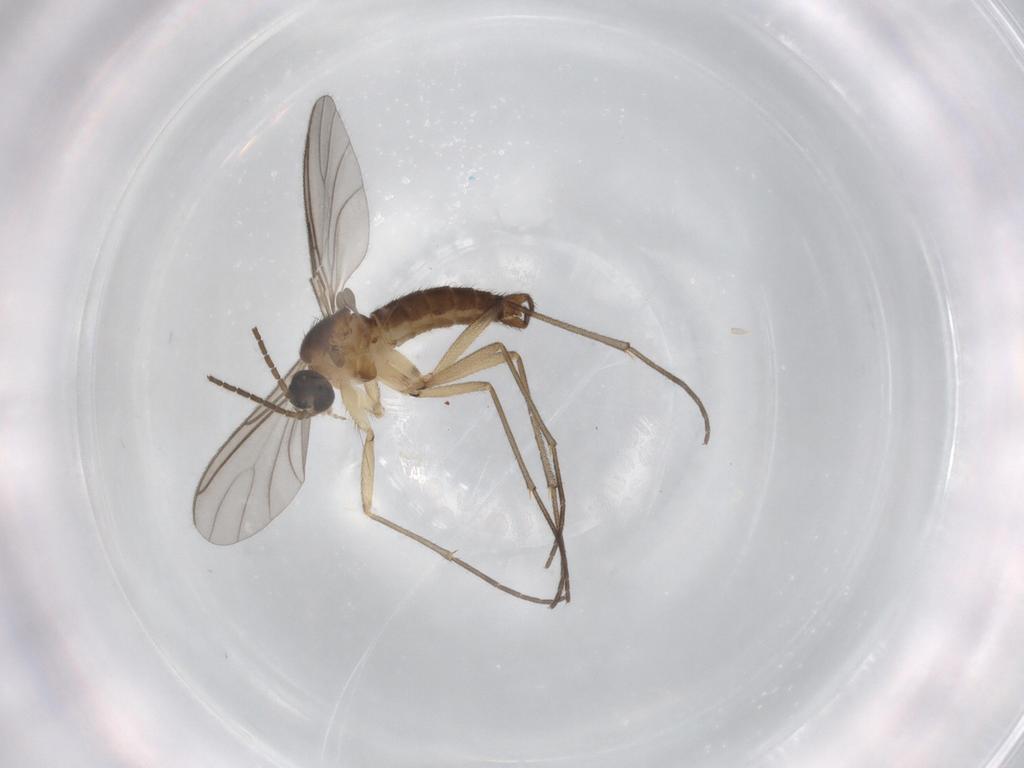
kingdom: Animalia
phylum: Arthropoda
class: Insecta
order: Diptera
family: Sciaridae
